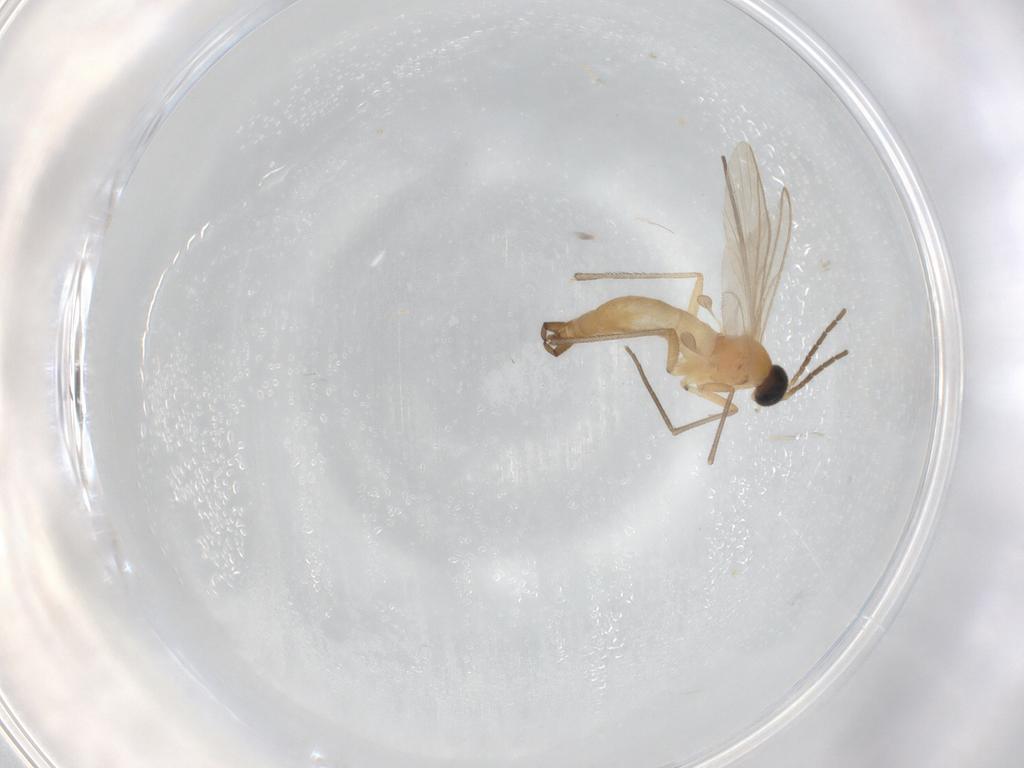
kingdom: Animalia
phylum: Arthropoda
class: Insecta
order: Diptera
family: Sciaridae
